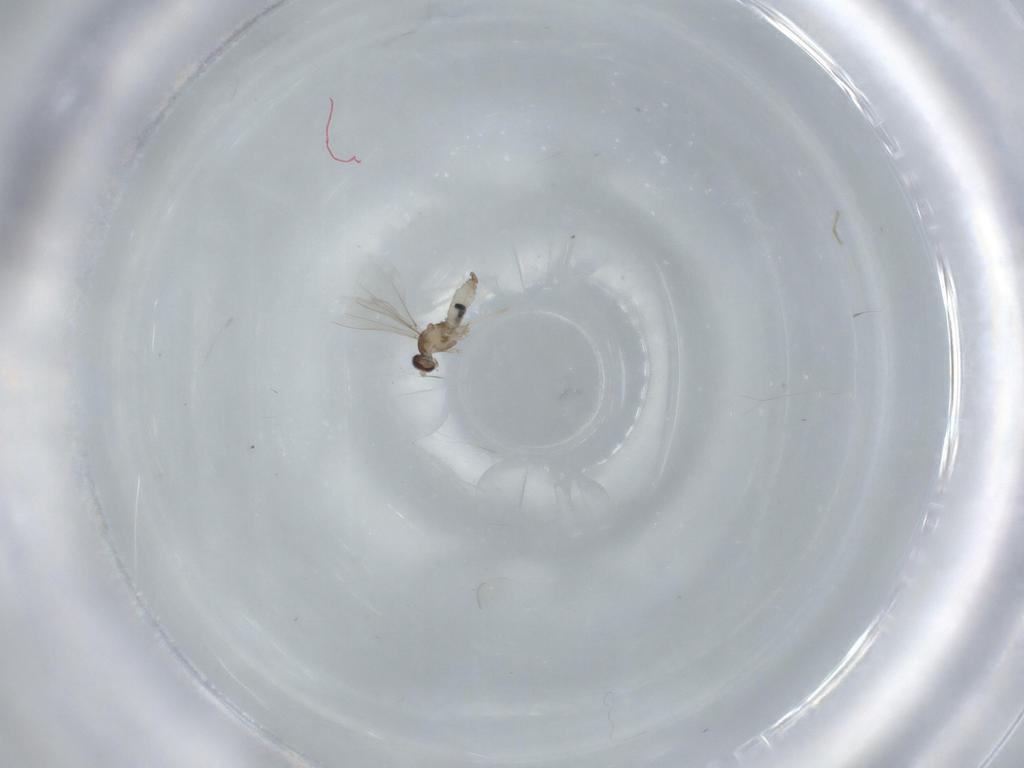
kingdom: Animalia
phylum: Arthropoda
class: Insecta
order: Diptera
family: Cecidomyiidae
